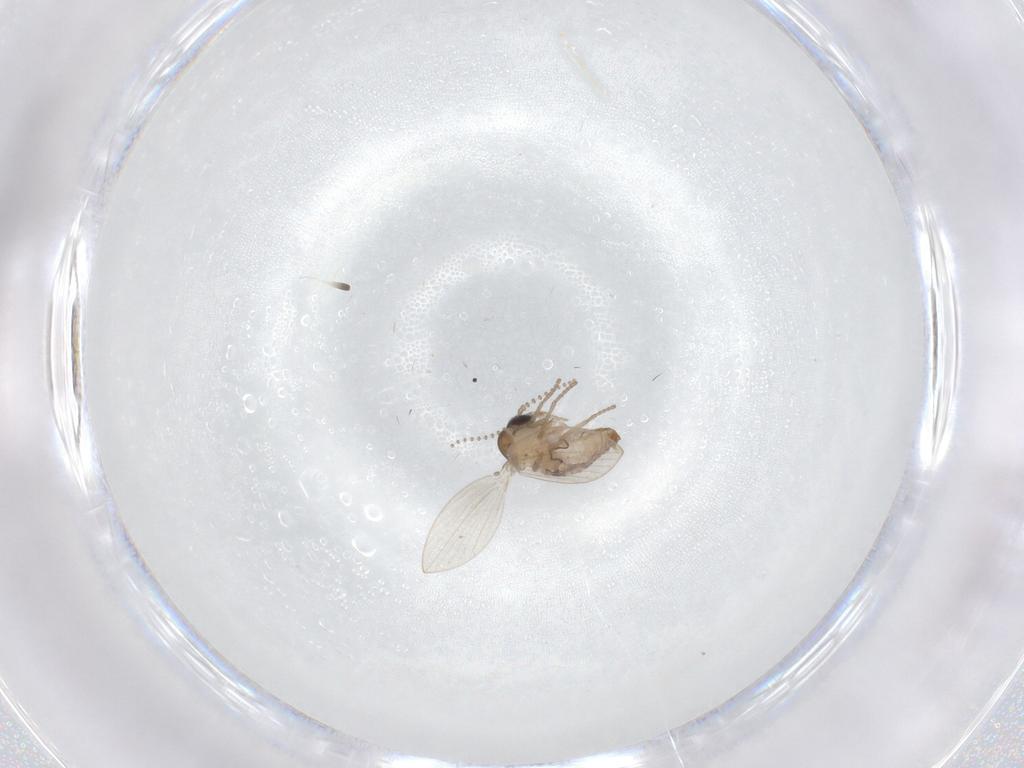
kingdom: Animalia
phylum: Arthropoda
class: Insecta
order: Diptera
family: Psychodidae
